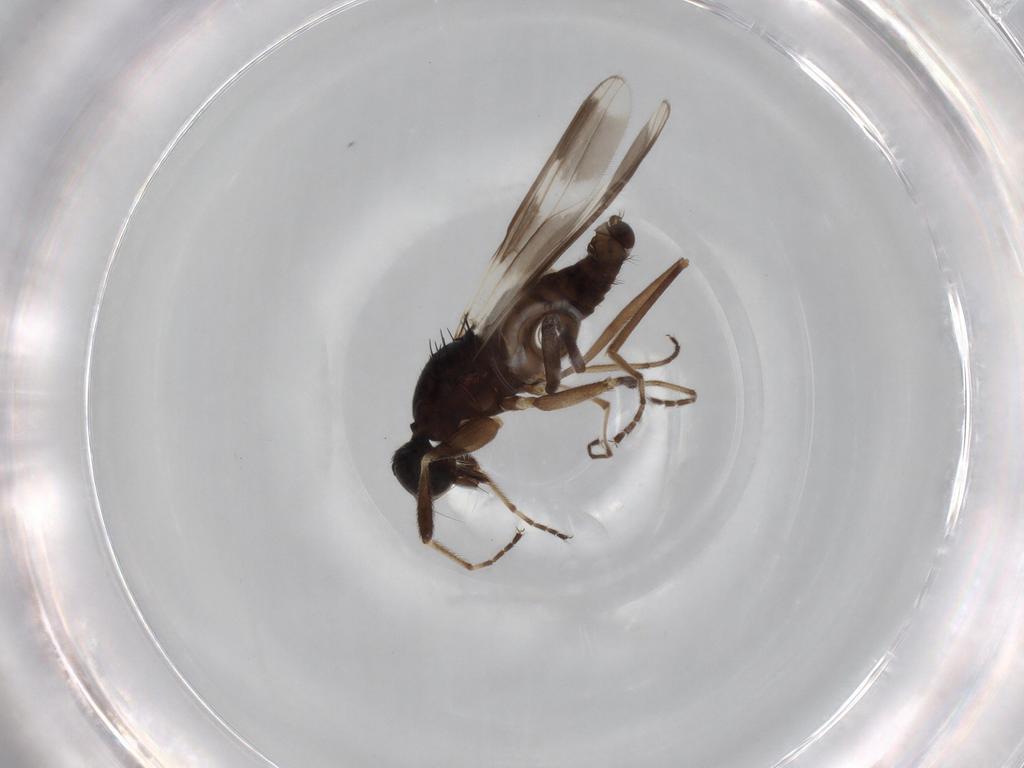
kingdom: Animalia
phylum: Arthropoda
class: Insecta
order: Diptera
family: Hybotidae
